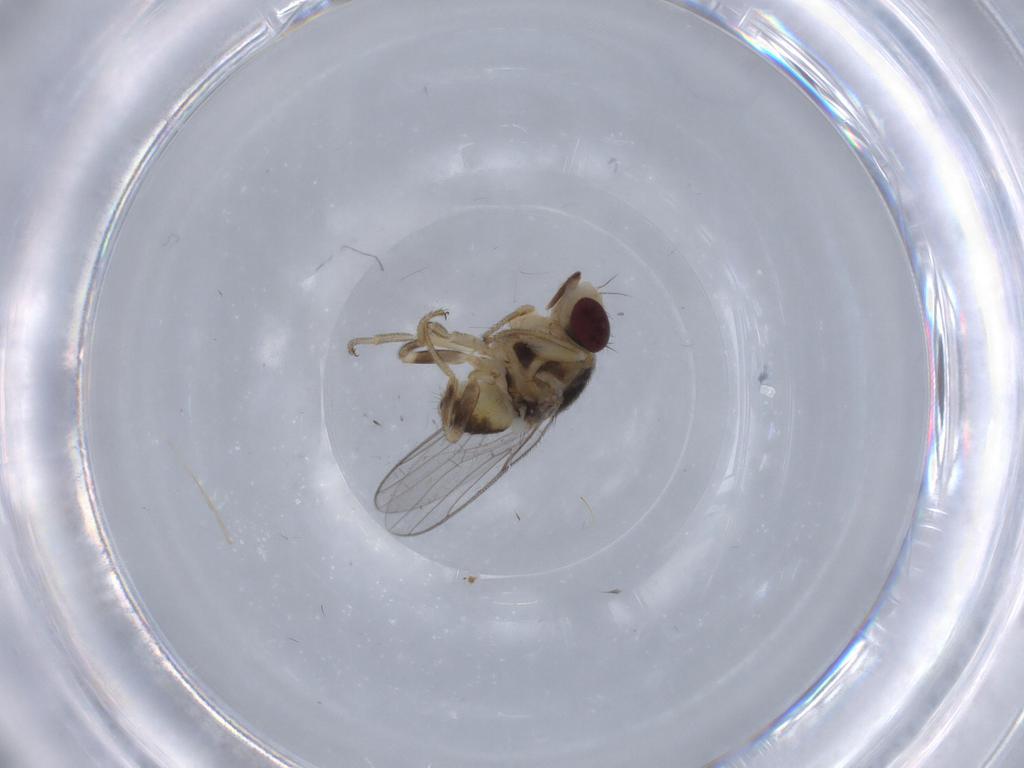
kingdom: Animalia
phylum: Arthropoda
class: Insecta
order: Diptera
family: Chloropidae
